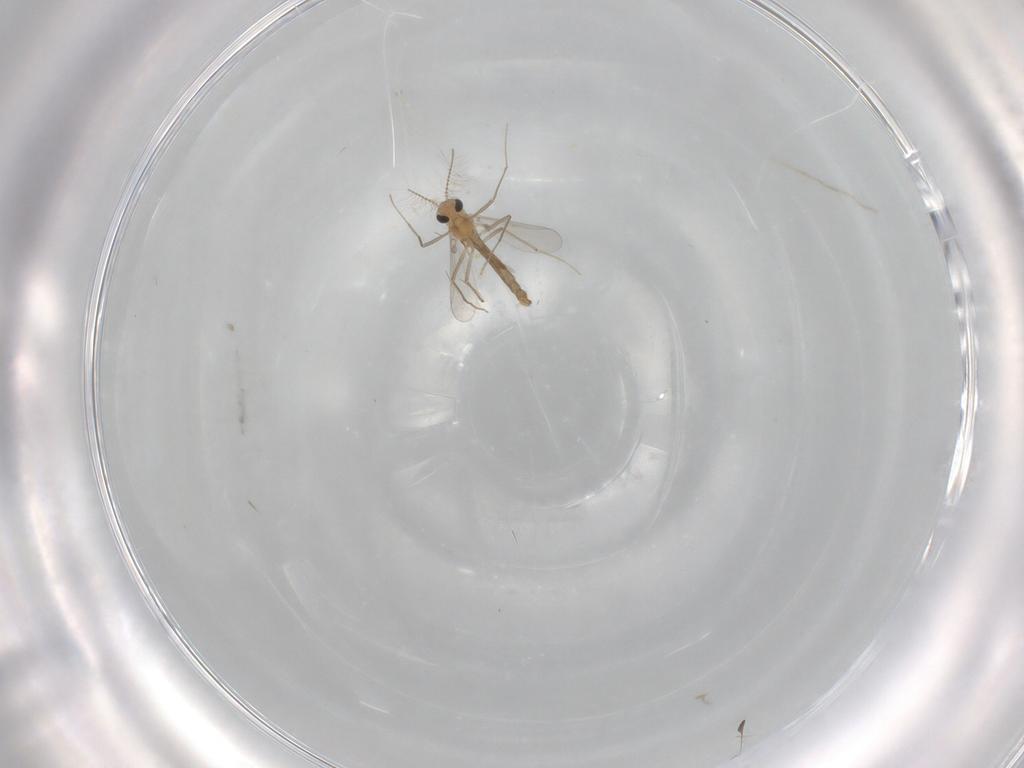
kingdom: Animalia
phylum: Arthropoda
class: Insecta
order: Diptera
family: Chironomidae
